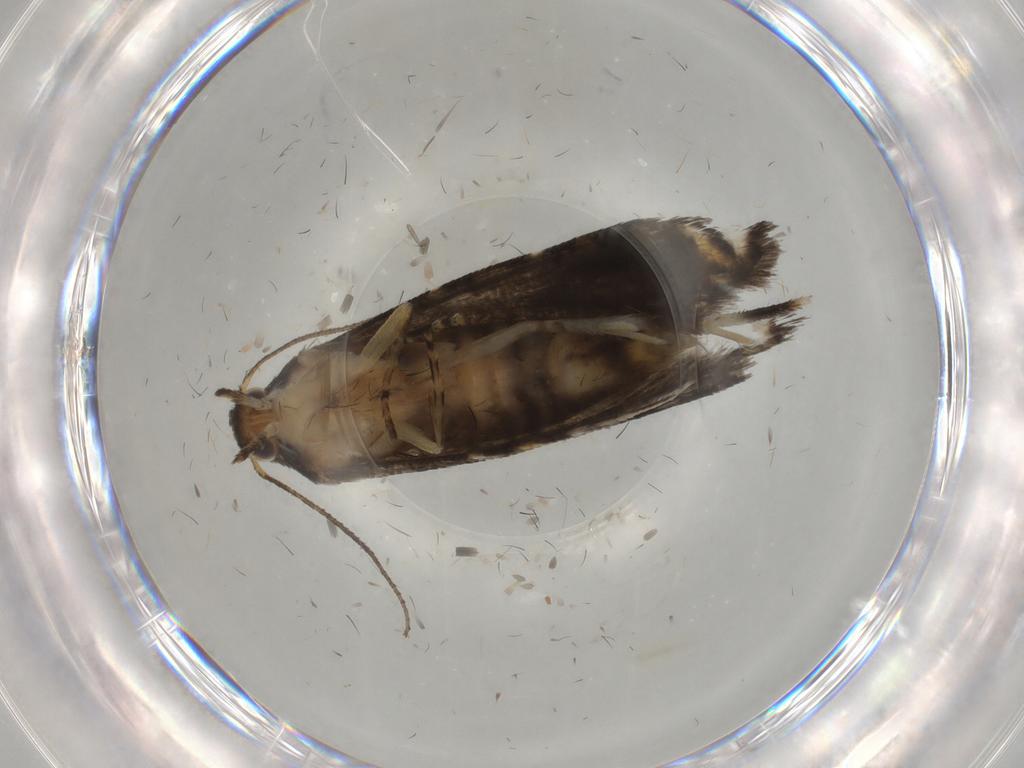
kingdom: Animalia
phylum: Arthropoda
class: Insecta
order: Lepidoptera
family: Glyphipterigidae
